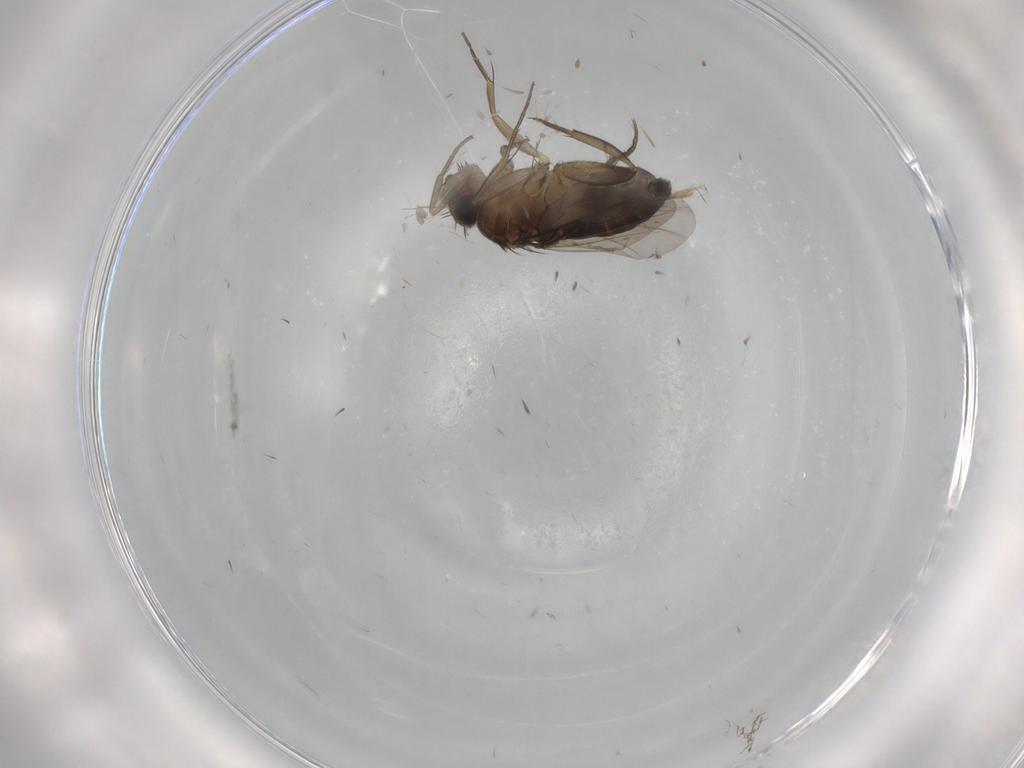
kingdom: Animalia
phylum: Arthropoda
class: Insecta
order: Diptera
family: Phoridae
